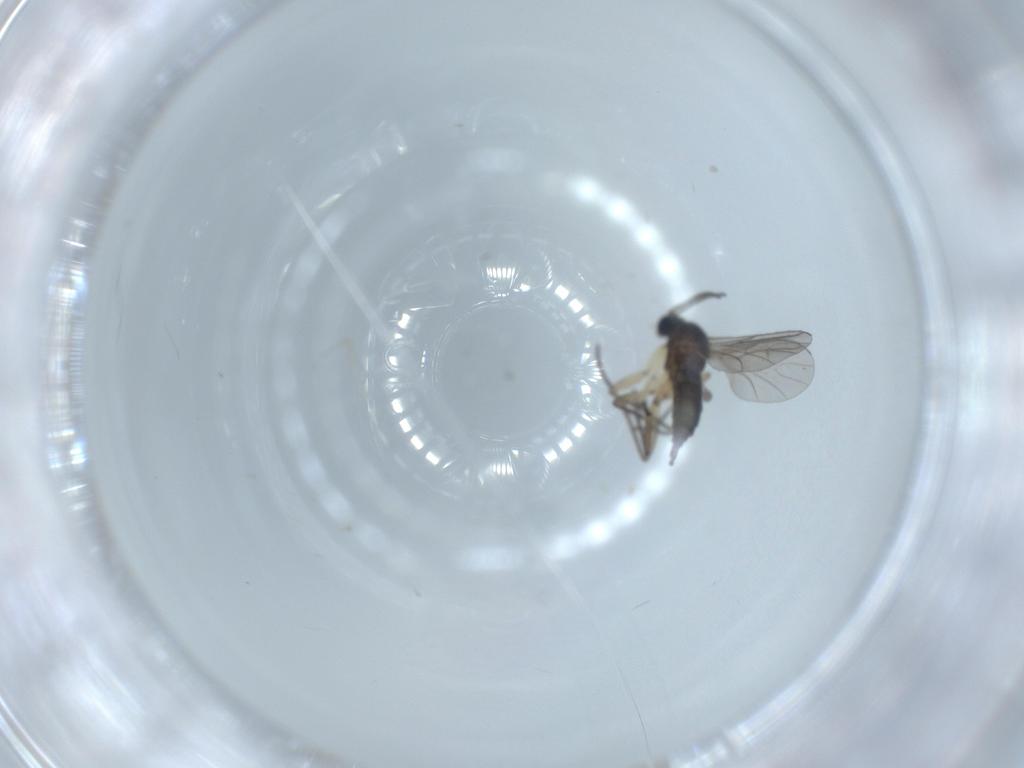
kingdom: Animalia
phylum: Arthropoda
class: Insecta
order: Diptera
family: Sciaridae
